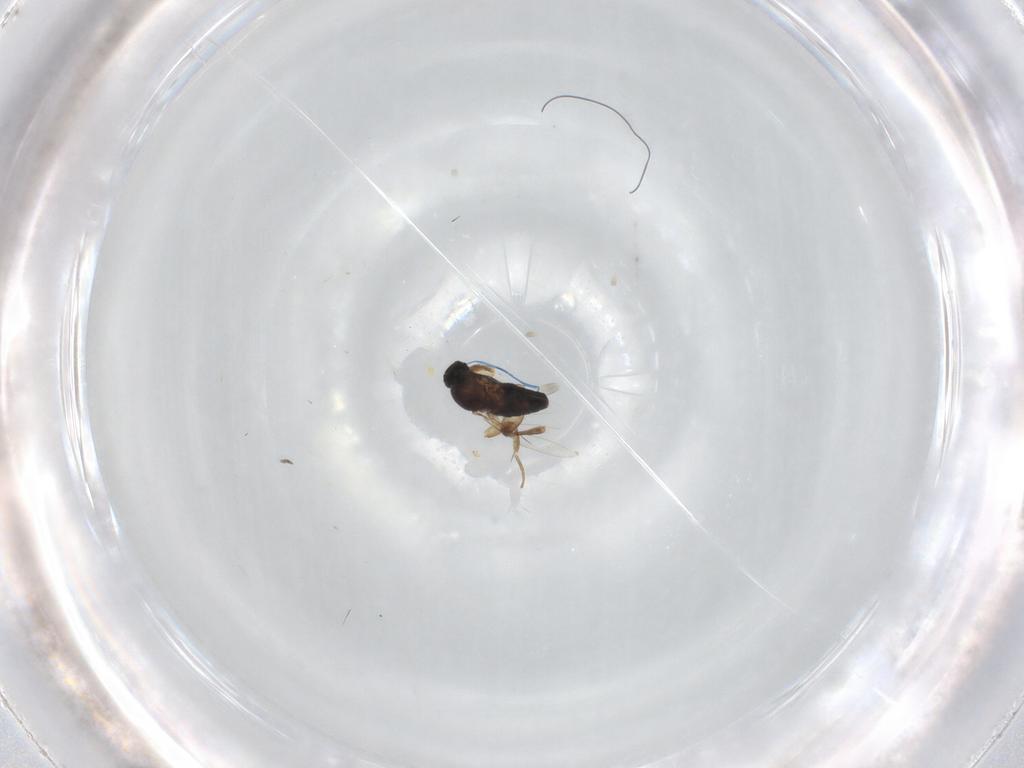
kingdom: Animalia
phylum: Arthropoda
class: Insecta
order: Diptera
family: Phoridae
